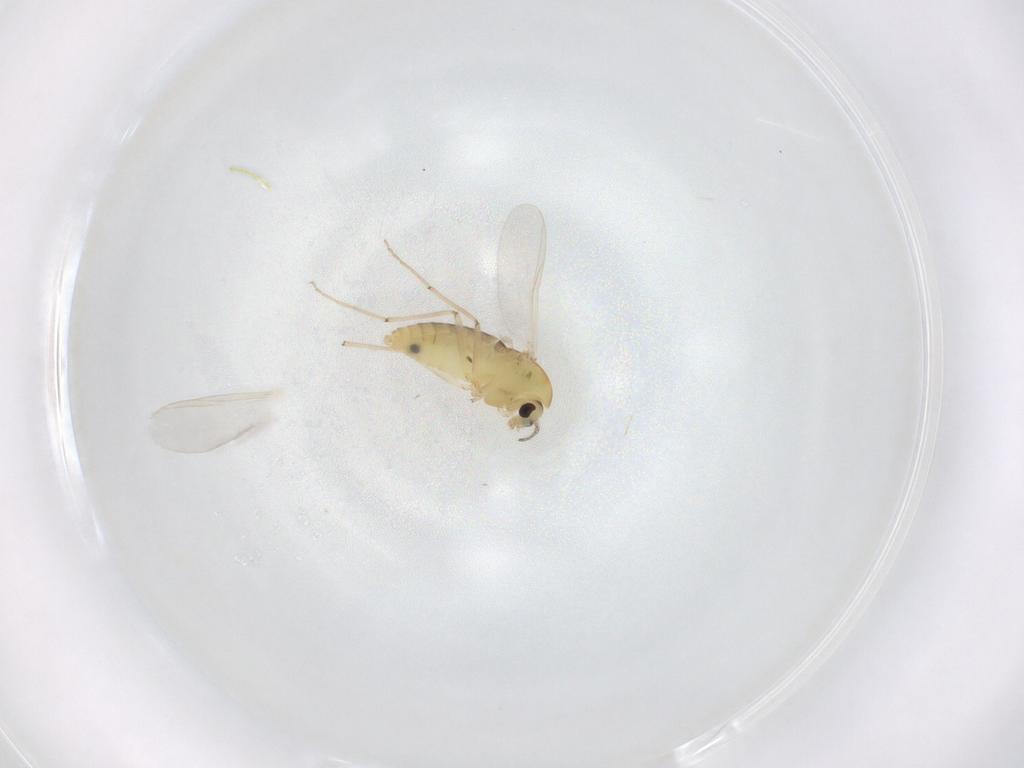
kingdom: Animalia
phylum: Arthropoda
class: Insecta
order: Diptera
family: Chironomidae
